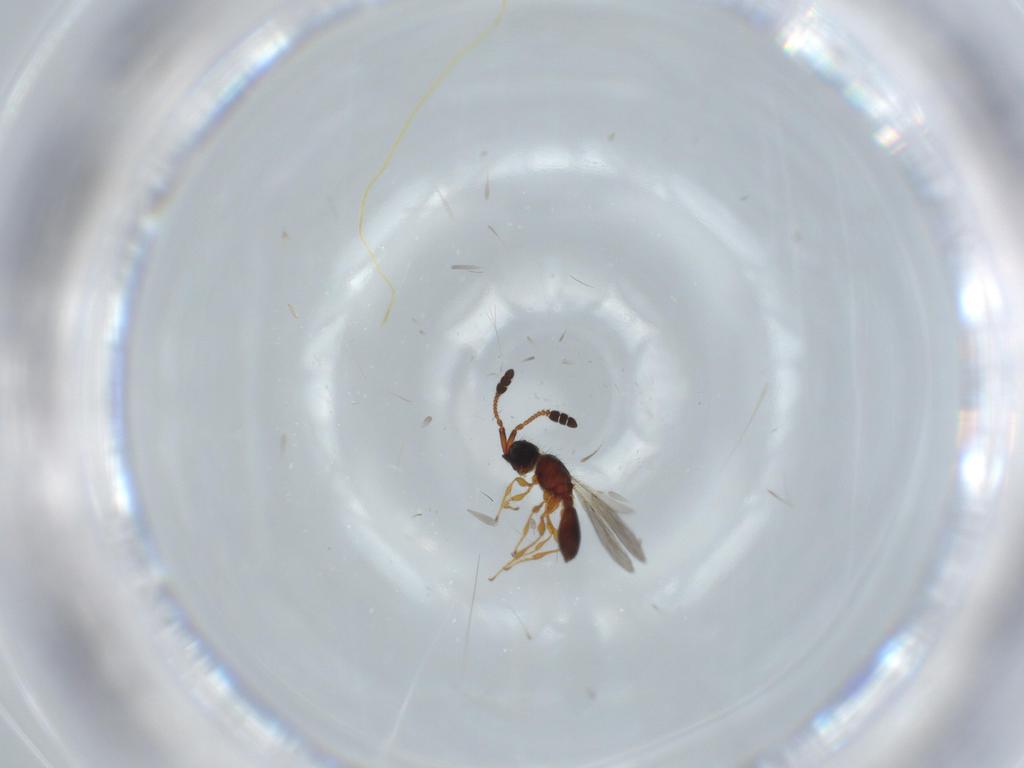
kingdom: Animalia
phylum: Arthropoda
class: Insecta
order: Hymenoptera
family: Diapriidae
